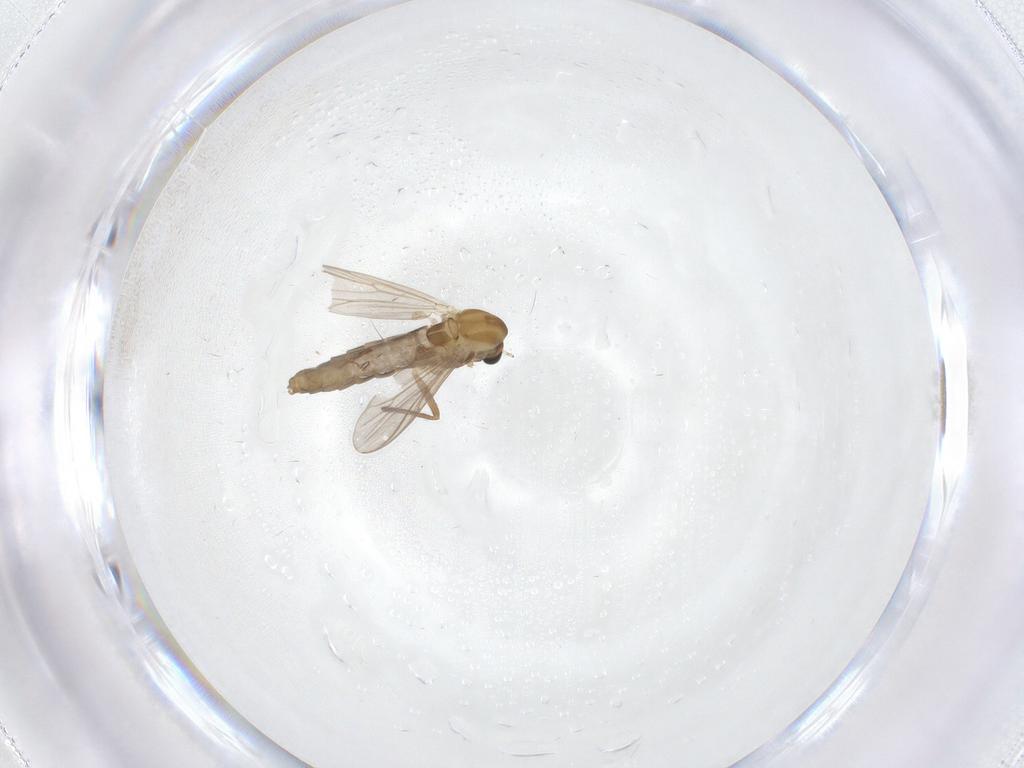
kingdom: Animalia
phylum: Arthropoda
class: Insecta
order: Diptera
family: Chironomidae
